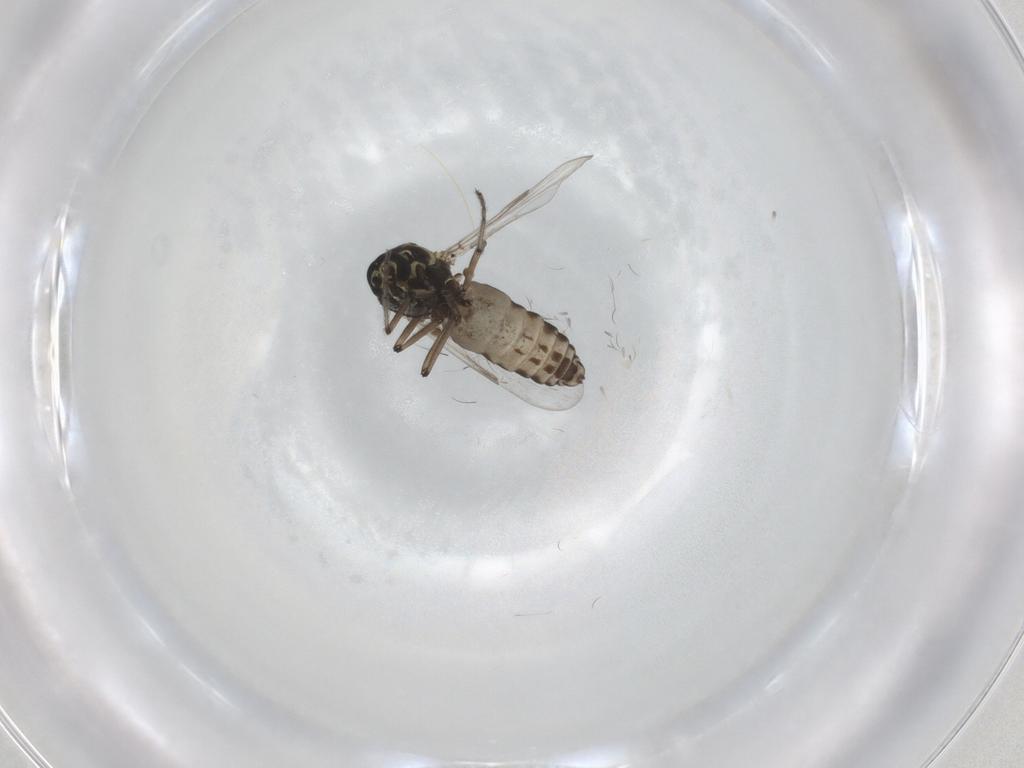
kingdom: Animalia
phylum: Arthropoda
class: Insecta
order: Diptera
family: Ceratopogonidae
